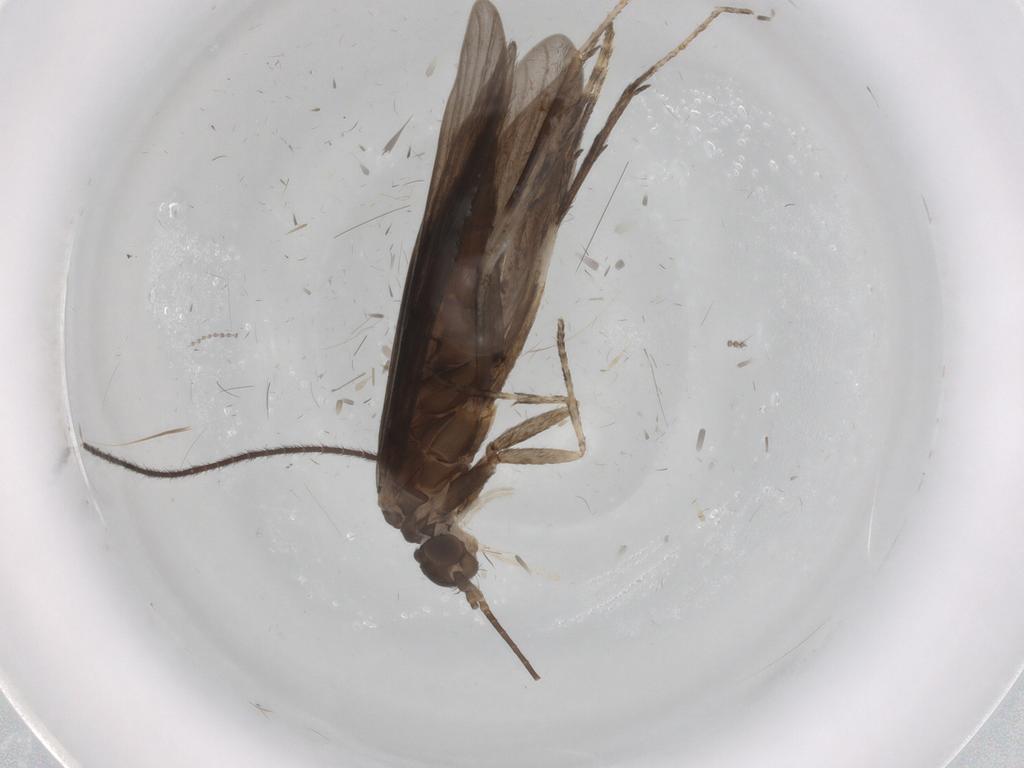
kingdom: Animalia
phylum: Arthropoda
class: Insecta
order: Trichoptera
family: Xiphocentronidae
